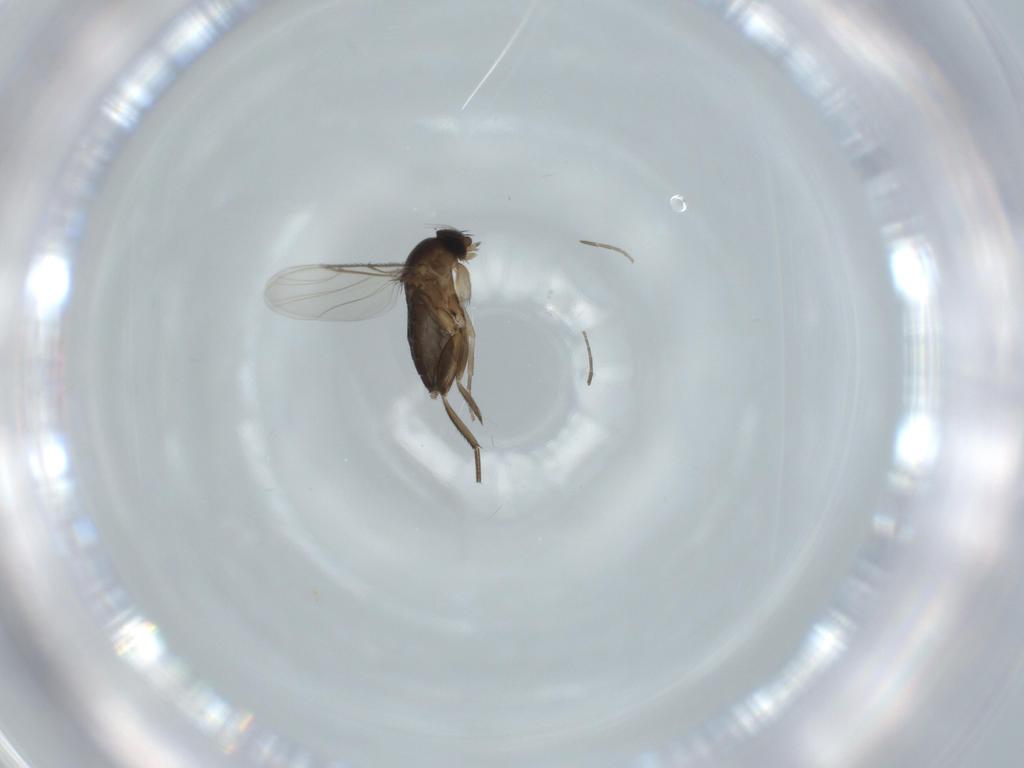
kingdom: Animalia
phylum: Arthropoda
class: Insecta
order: Diptera
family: Phoridae
